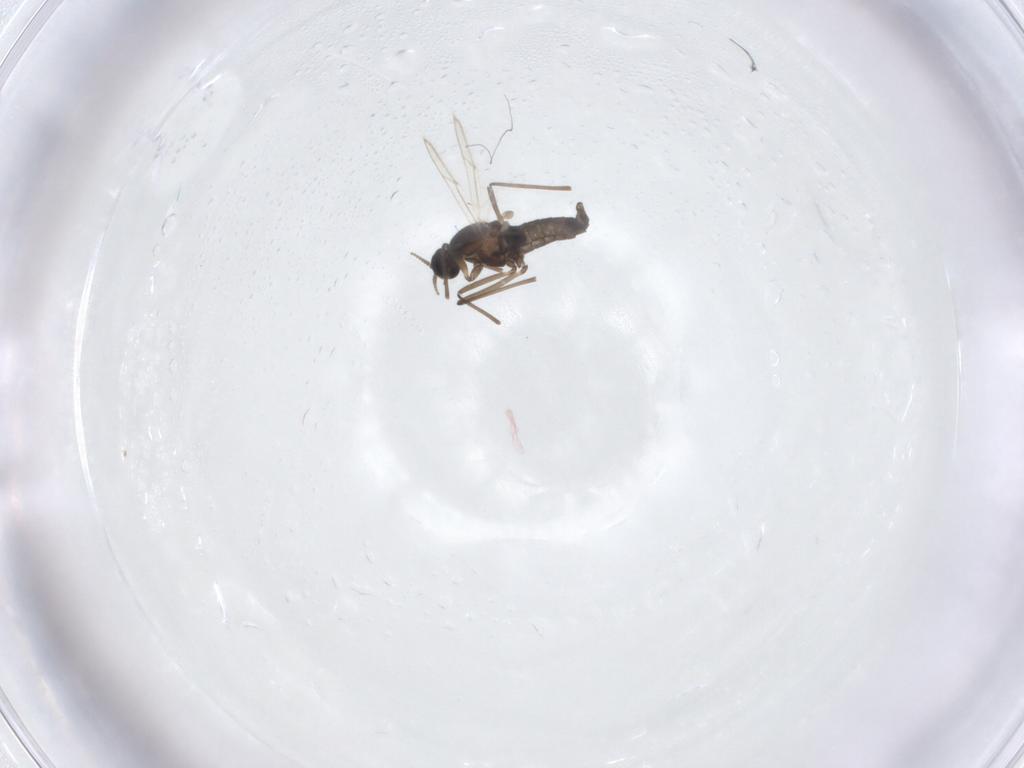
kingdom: Animalia
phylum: Arthropoda
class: Insecta
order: Diptera
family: Cecidomyiidae
